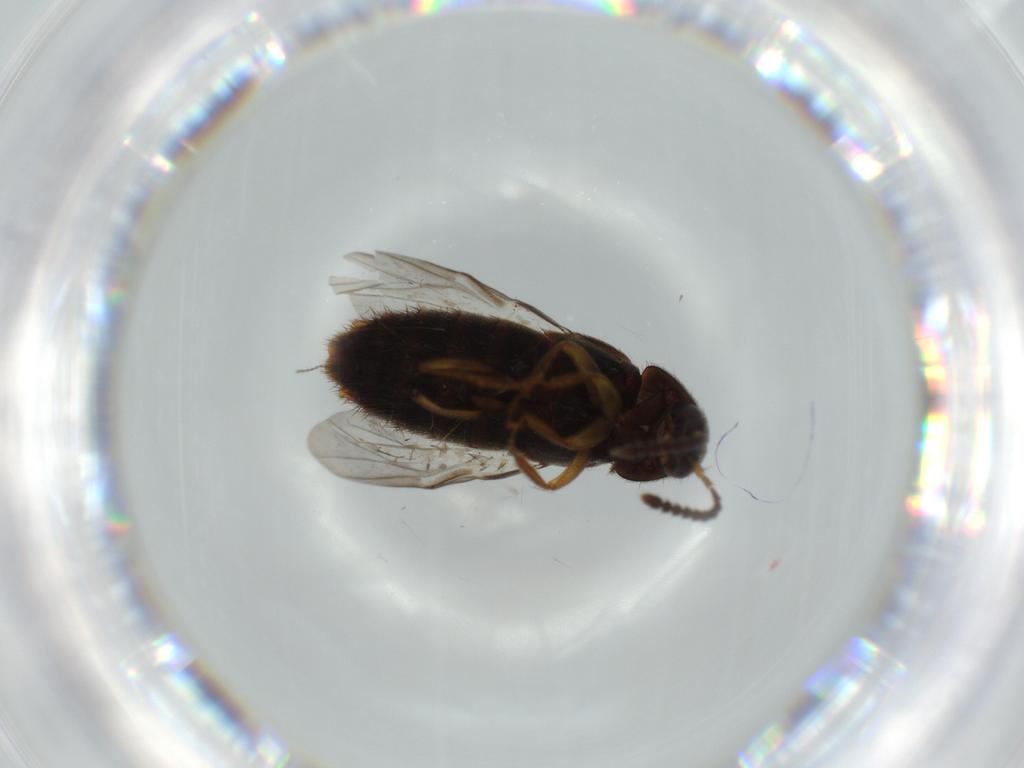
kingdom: Animalia
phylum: Arthropoda
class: Insecta
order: Coleoptera
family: Staphylinidae
